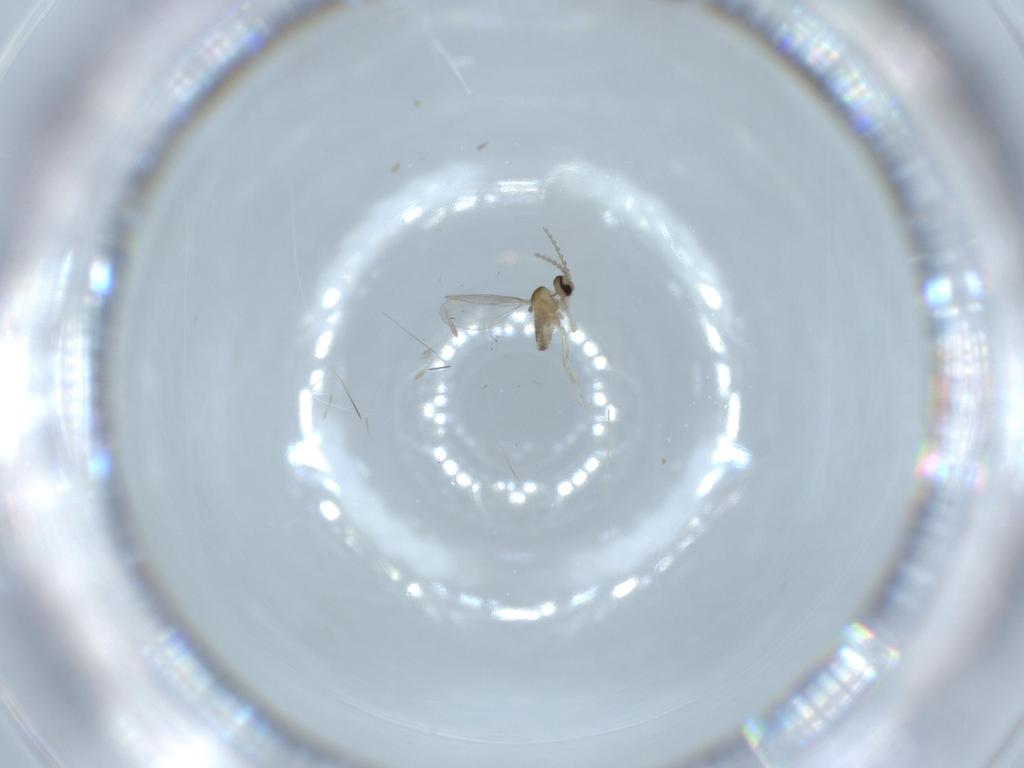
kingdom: Animalia
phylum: Arthropoda
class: Insecta
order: Diptera
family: Cecidomyiidae
